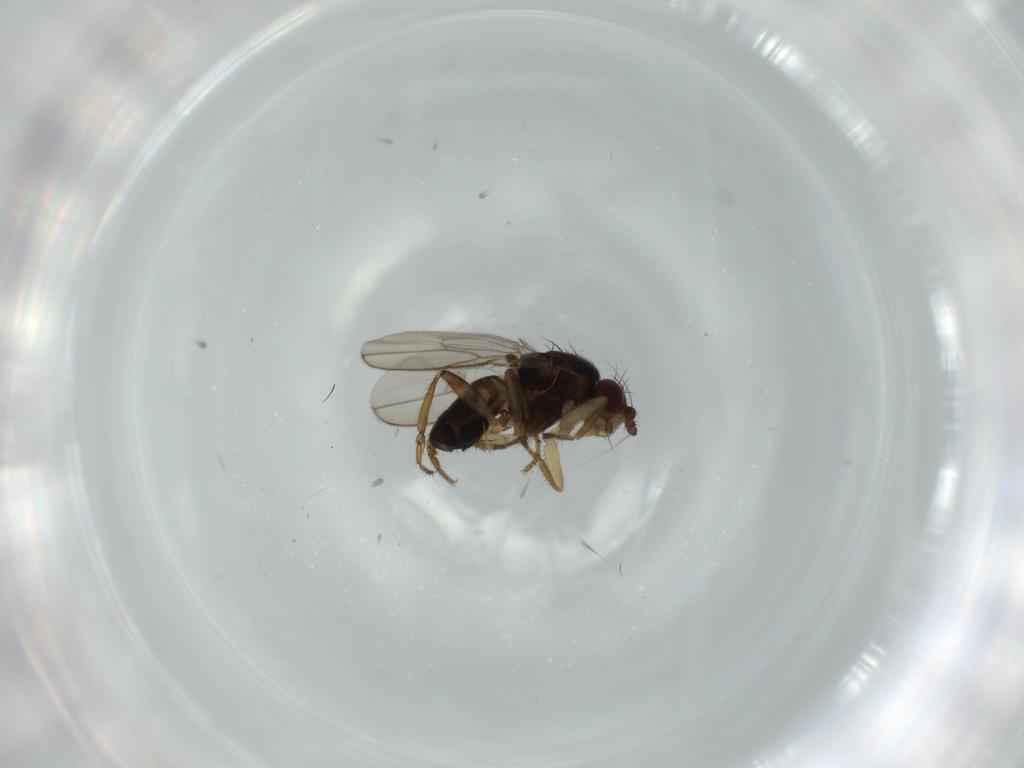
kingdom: Animalia
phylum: Arthropoda
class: Insecta
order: Diptera
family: Sphaeroceridae
